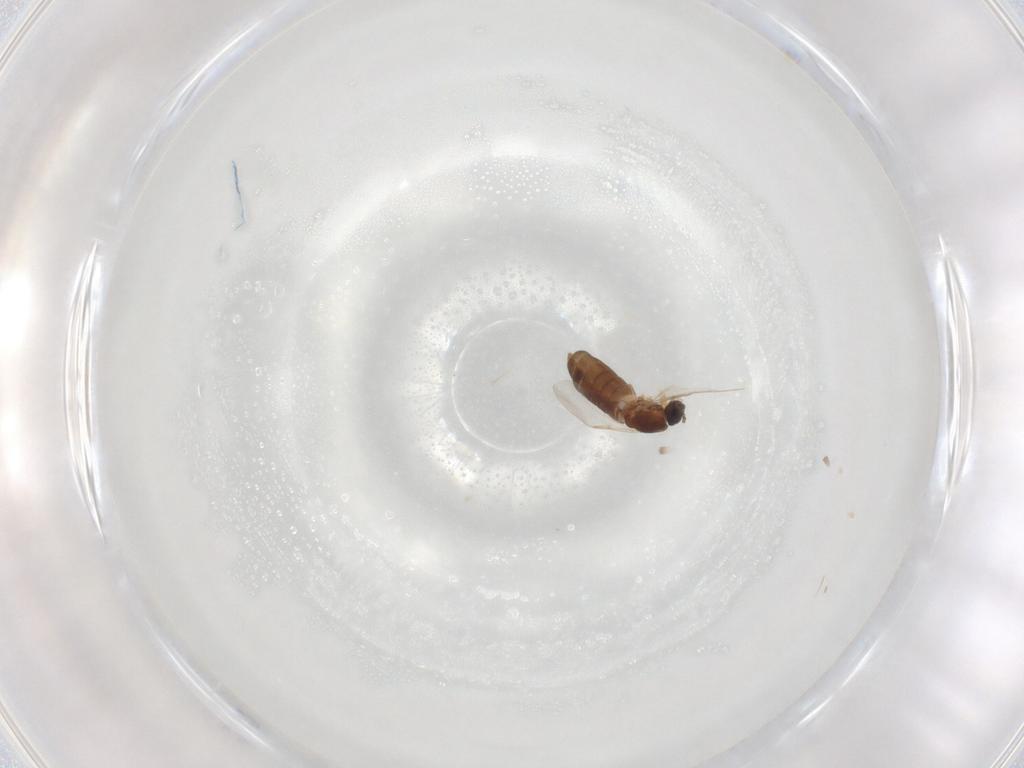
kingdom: Animalia
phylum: Arthropoda
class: Insecta
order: Diptera
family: Scatopsidae
